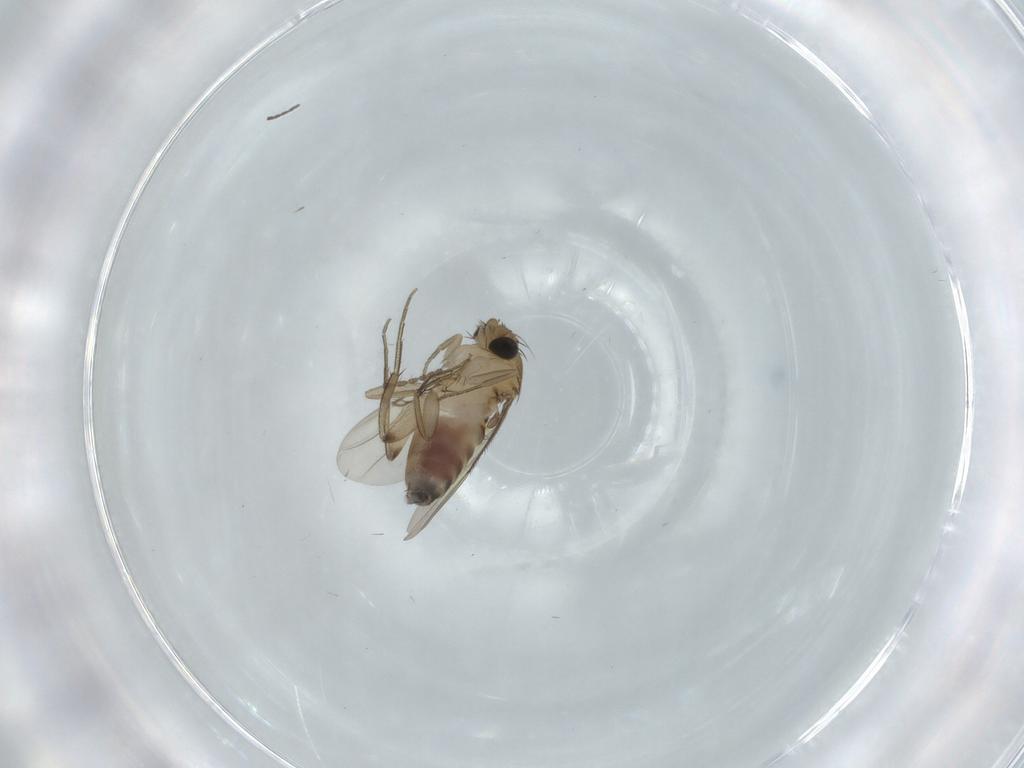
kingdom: Animalia
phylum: Arthropoda
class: Insecta
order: Diptera
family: Phoridae
